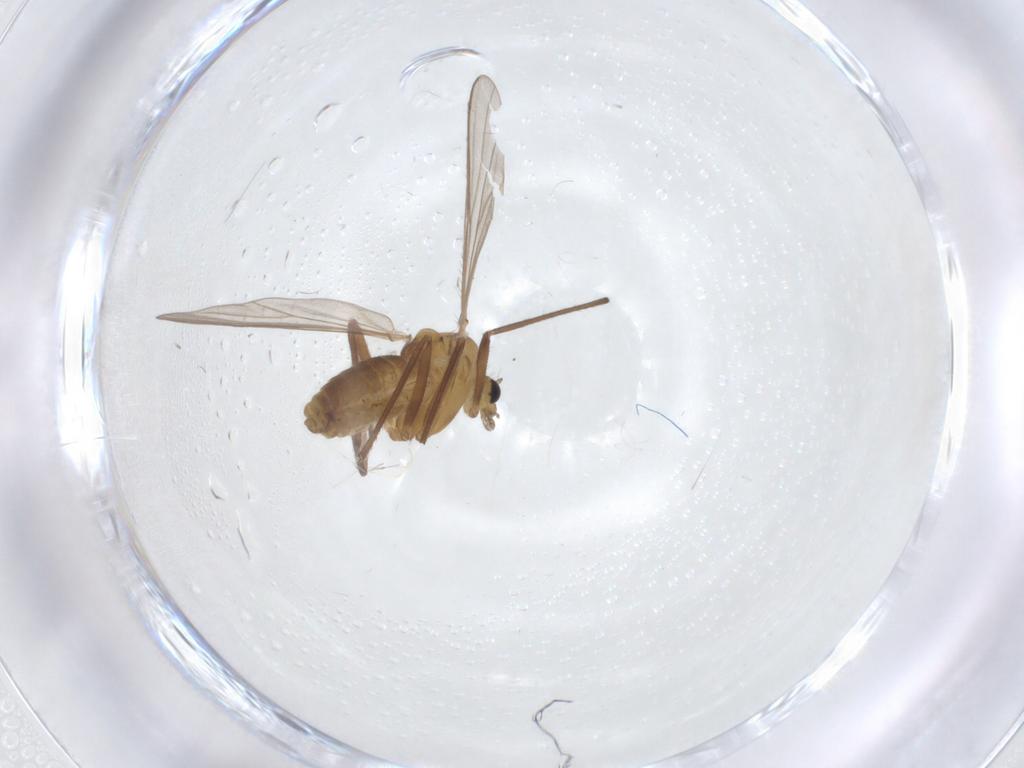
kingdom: Animalia
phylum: Arthropoda
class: Insecta
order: Diptera
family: Chironomidae
